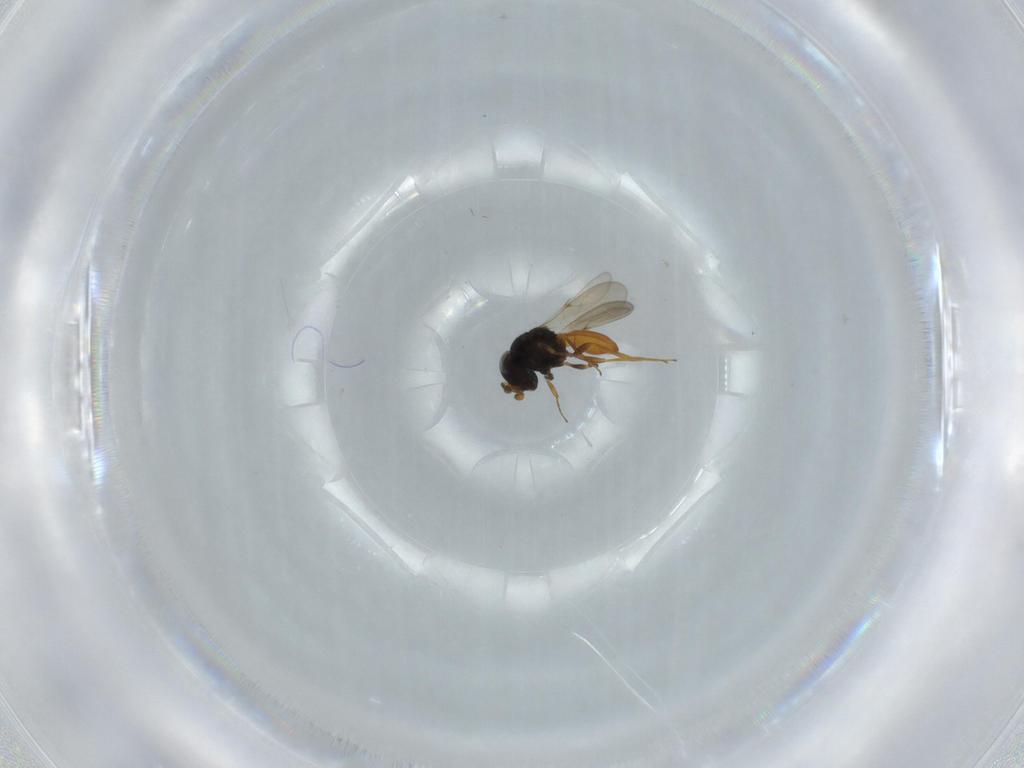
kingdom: Animalia
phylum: Arthropoda
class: Insecta
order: Hymenoptera
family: Scelionidae
